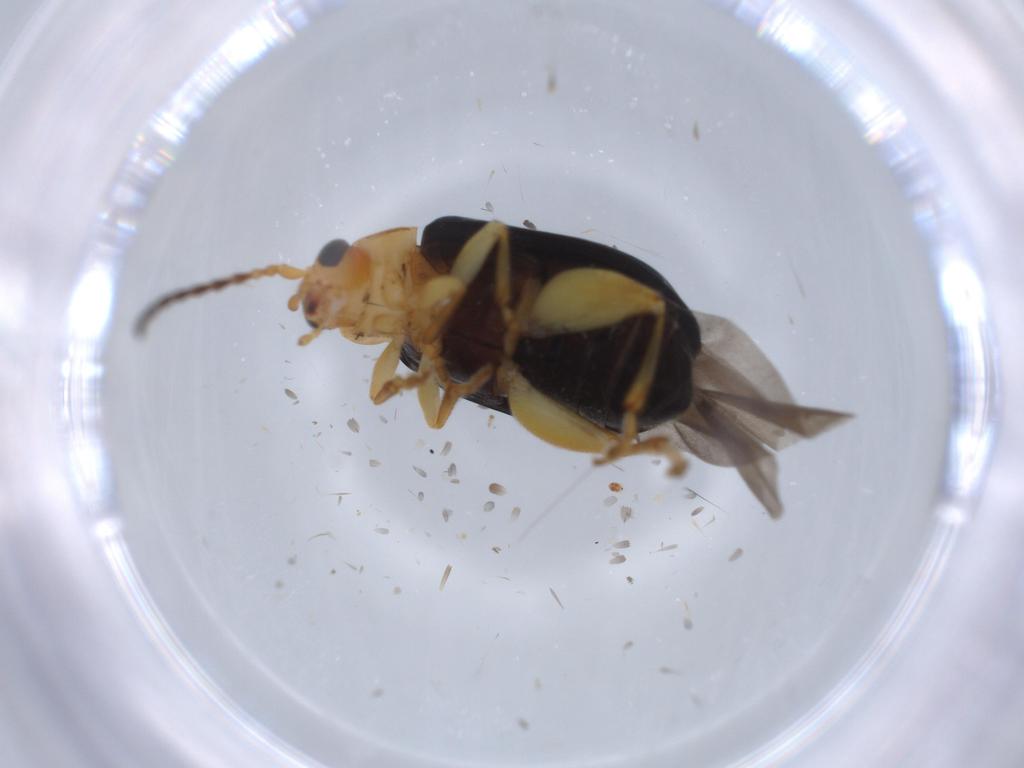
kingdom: Animalia
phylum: Arthropoda
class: Insecta
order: Coleoptera
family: Chrysomelidae
